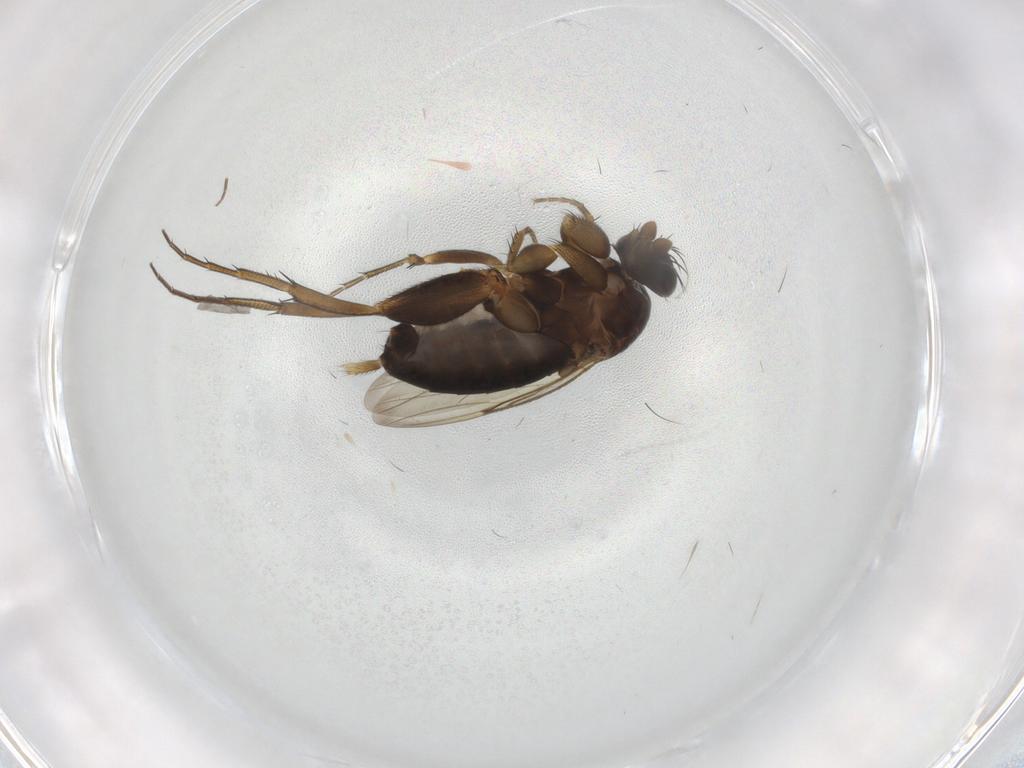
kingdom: Animalia
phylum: Arthropoda
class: Insecta
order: Diptera
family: Phoridae
